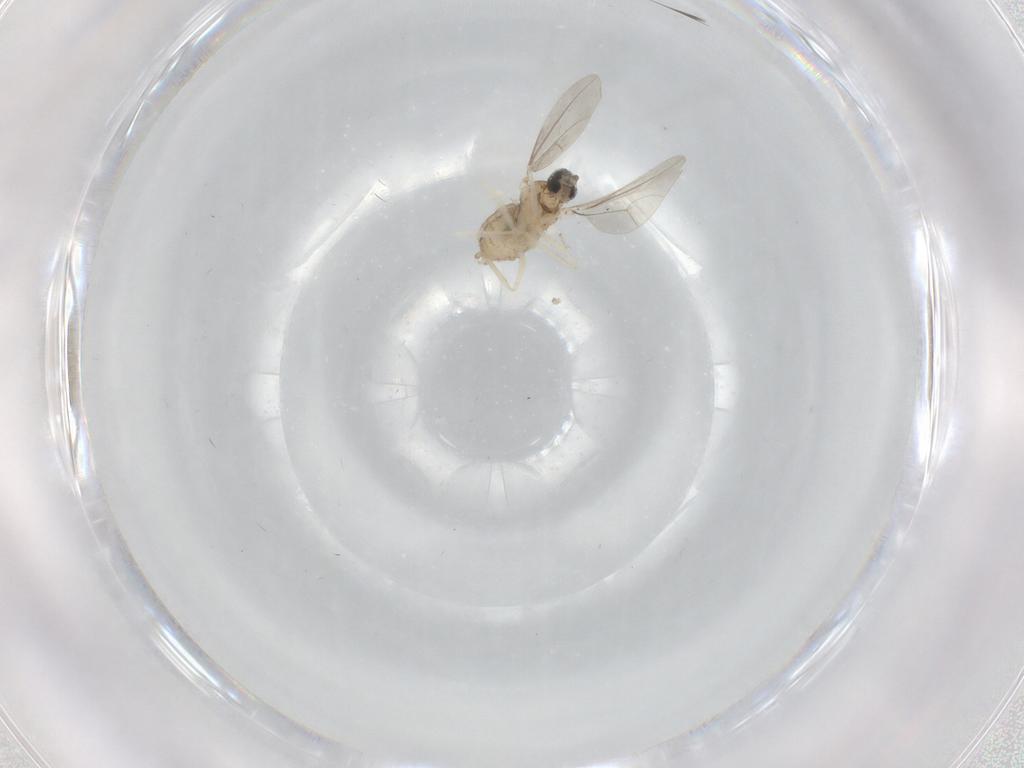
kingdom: Animalia
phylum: Arthropoda
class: Insecta
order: Diptera
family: Cecidomyiidae
